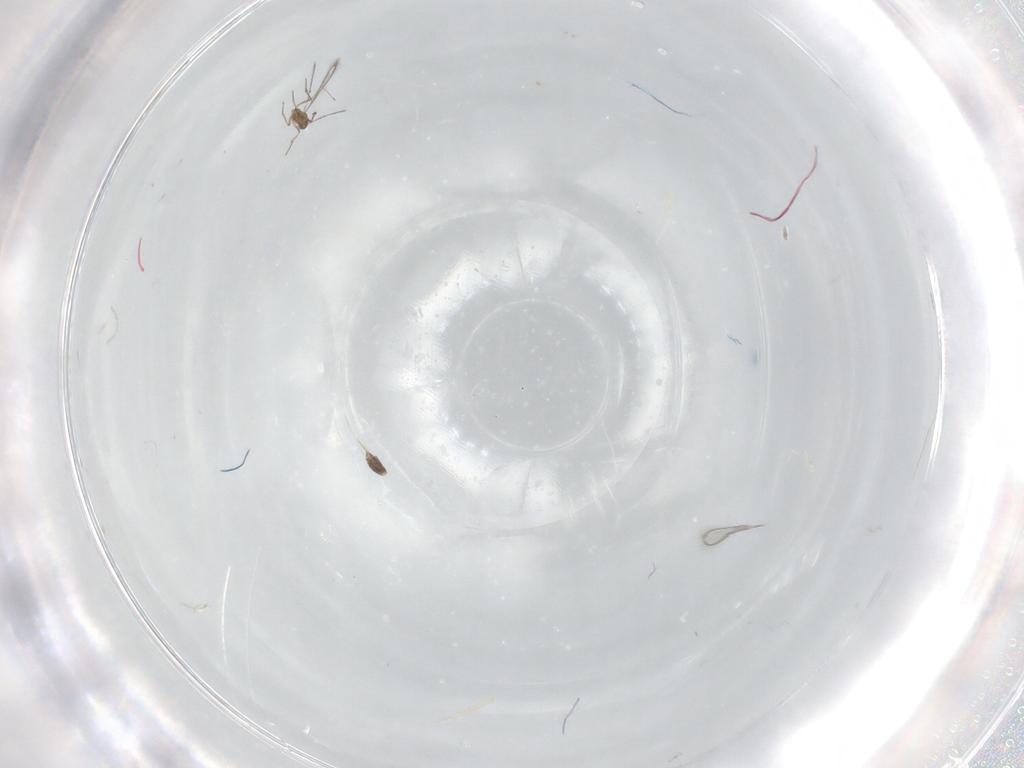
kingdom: Animalia
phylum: Arthropoda
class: Insecta
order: Hymenoptera
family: Mymaridae
